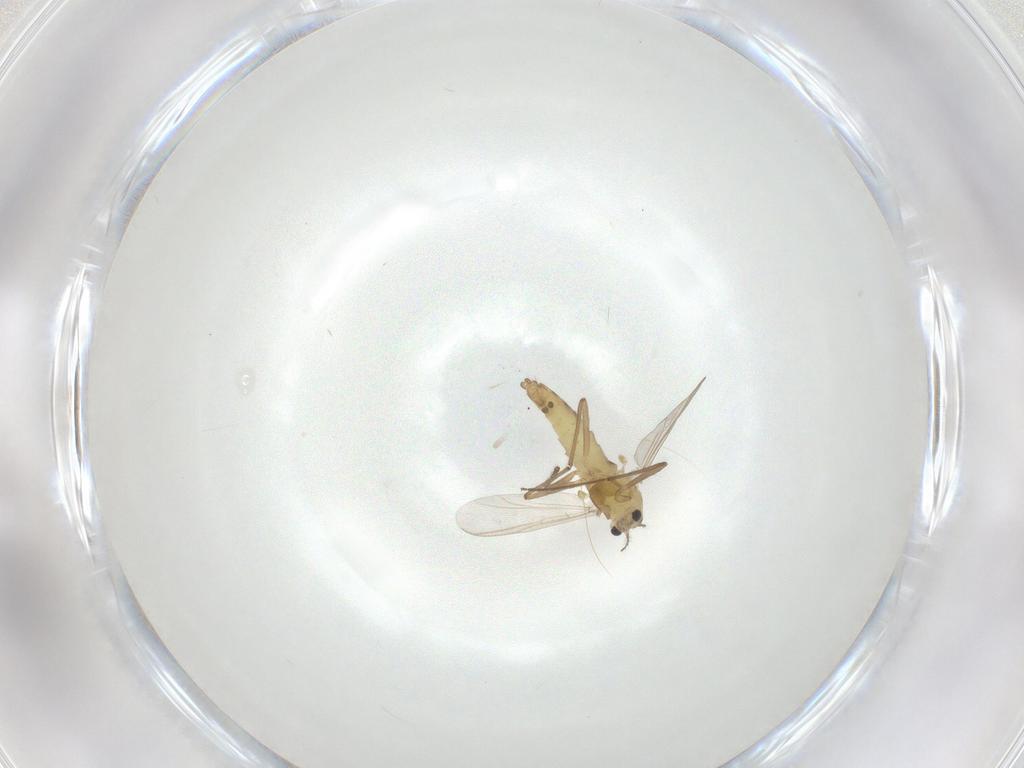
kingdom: Animalia
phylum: Arthropoda
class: Insecta
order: Diptera
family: Chironomidae
